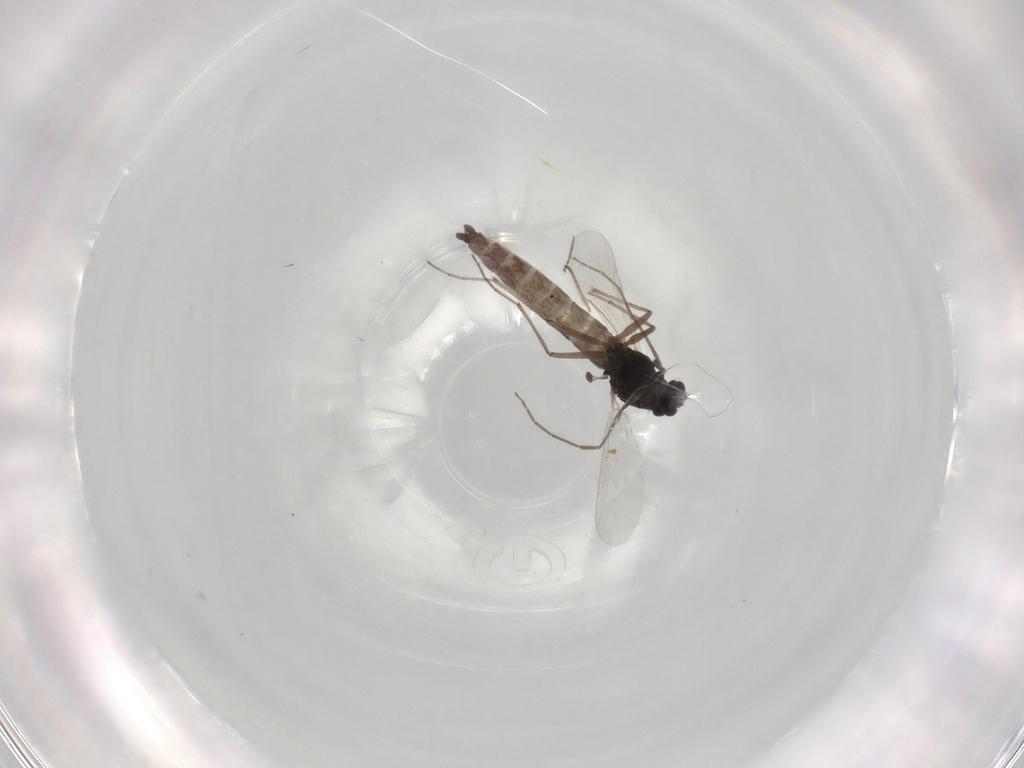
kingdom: Animalia
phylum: Arthropoda
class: Insecta
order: Diptera
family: Chironomidae
